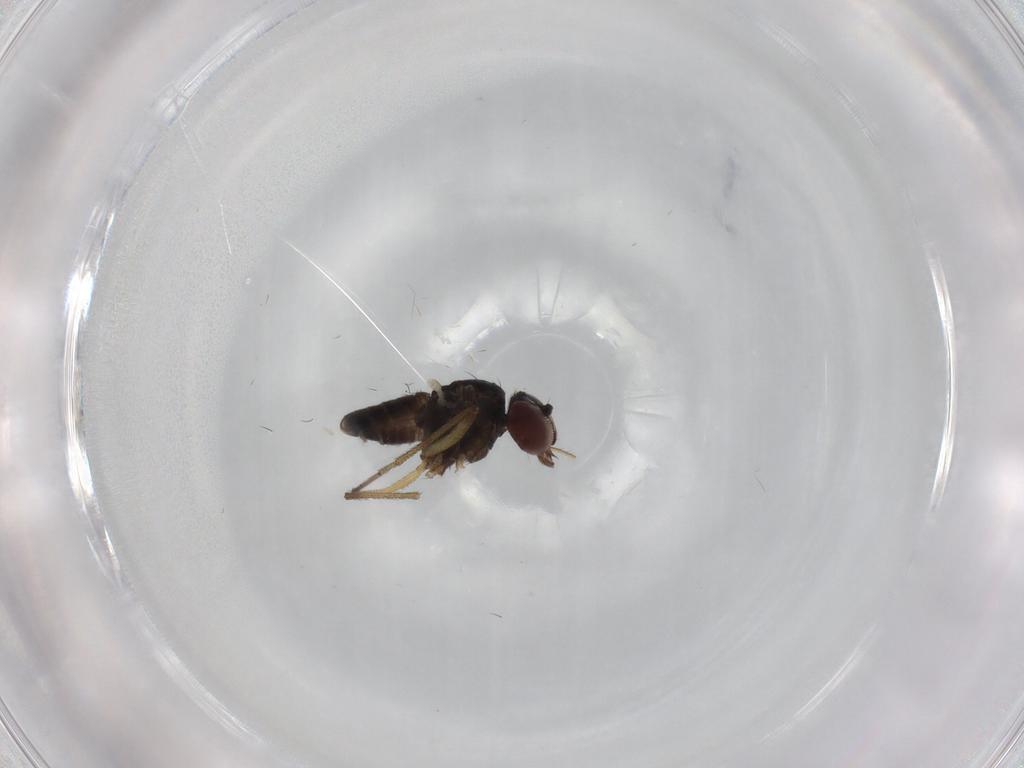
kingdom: Animalia
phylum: Arthropoda
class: Insecta
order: Diptera
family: Dolichopodidae
